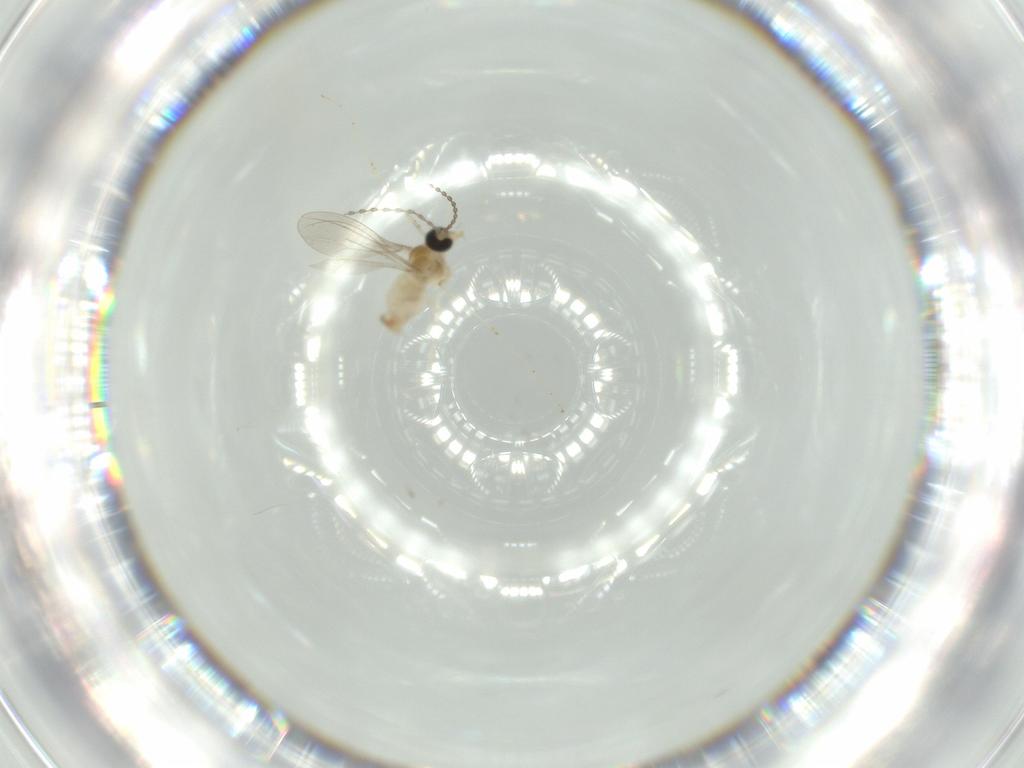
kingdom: Animalia
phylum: Arthropoda
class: Insecta
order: Diptera
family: Cecidomyiidae
